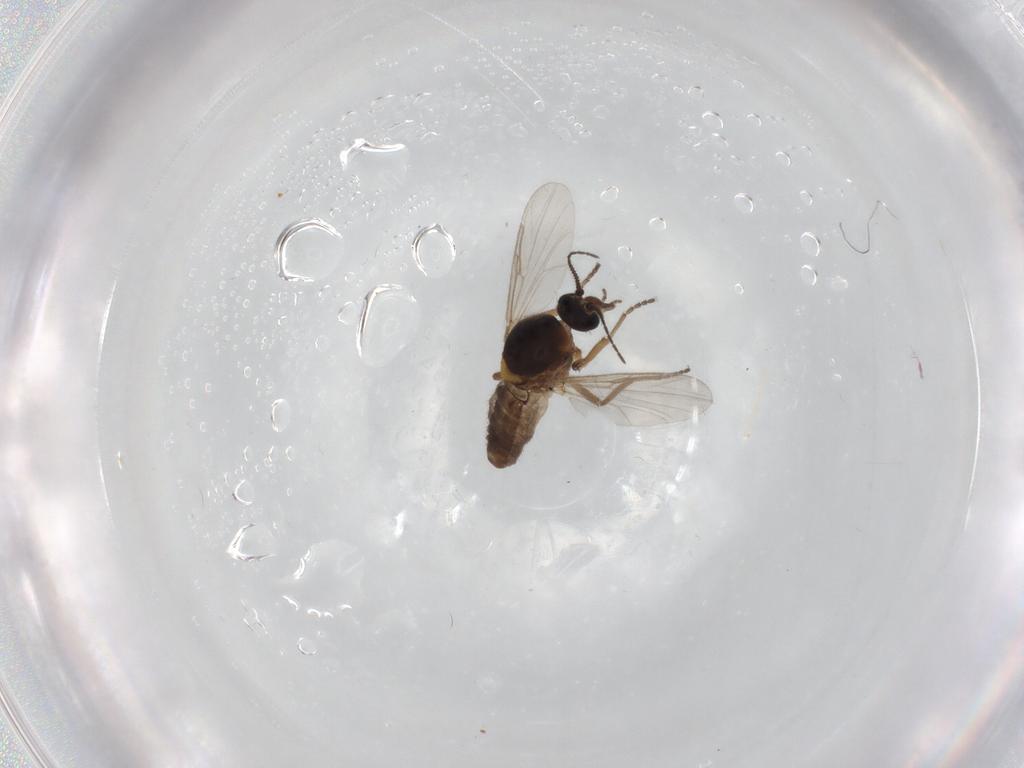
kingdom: Animalia
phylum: Arthropoda
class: Insecta
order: Diptera
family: Ceratopogonidae
